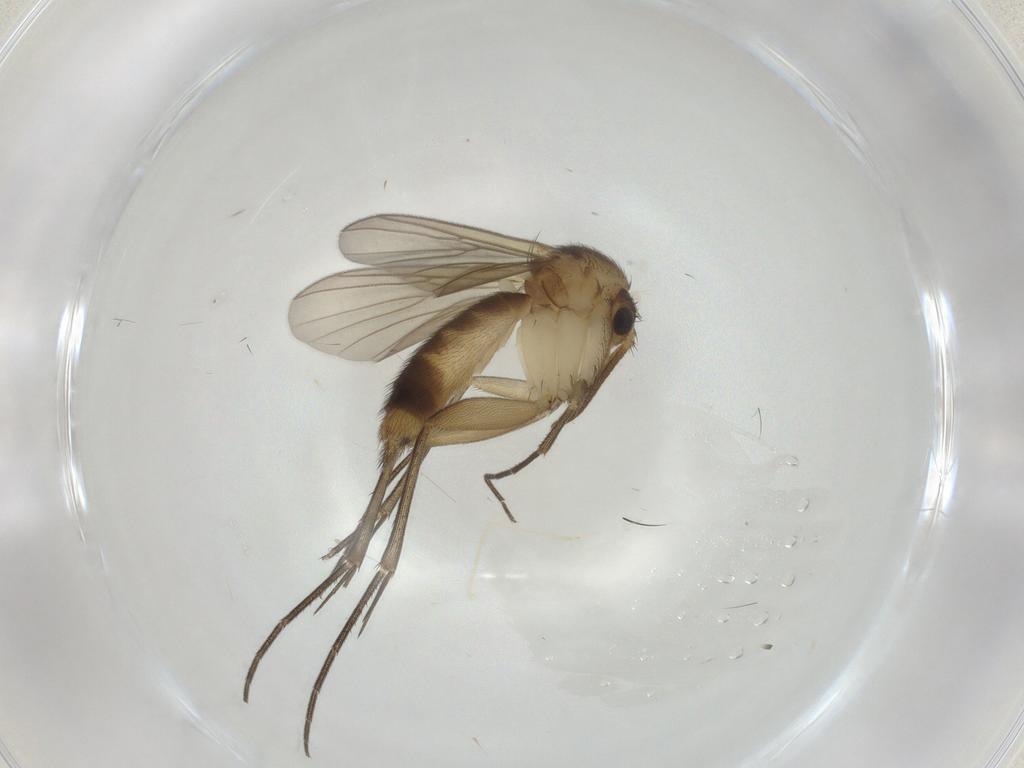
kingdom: Animalia
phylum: Arthropoda
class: Insecta
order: Diptera
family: Mycetophilidae
